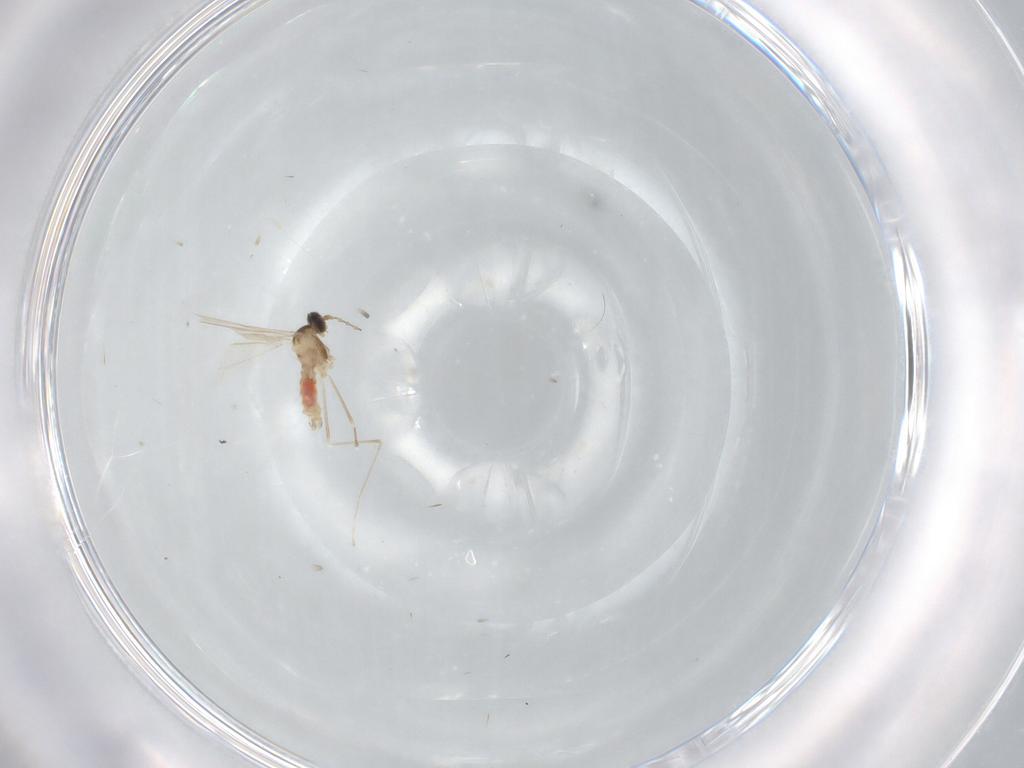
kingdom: Animalia
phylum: Arthropoda
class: Insecta
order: Diptera
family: Cecidomyiidae
